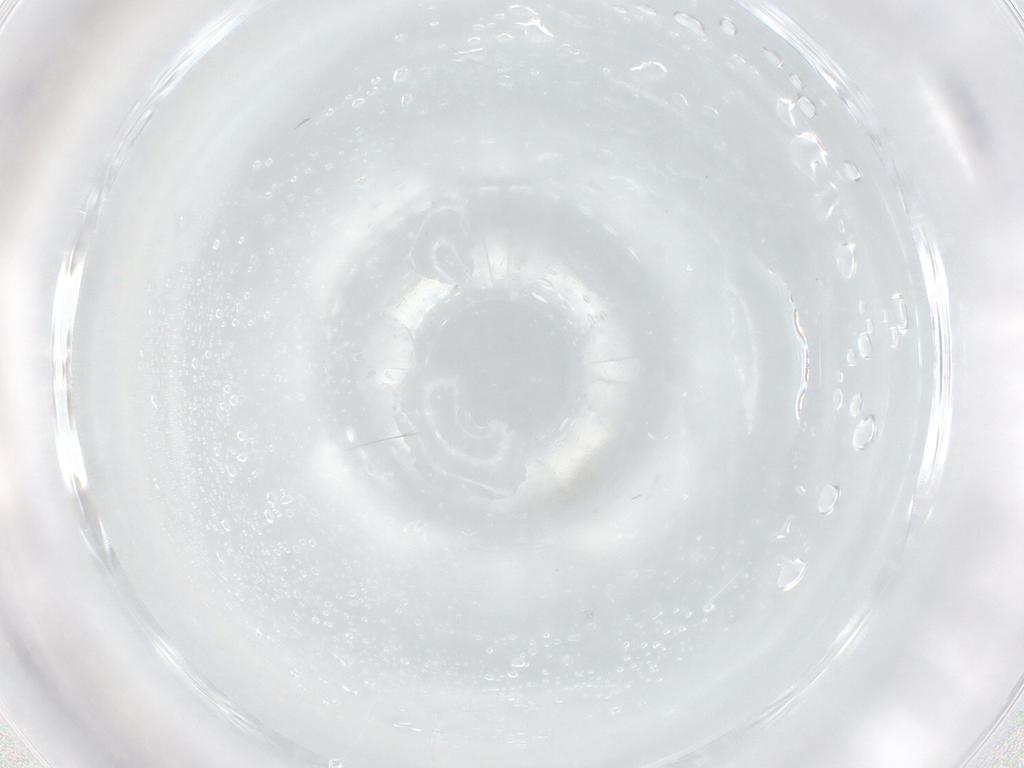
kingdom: Animalia
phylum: Arthropoda
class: Insecta
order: Hemiptera
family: Aleyrodidae
